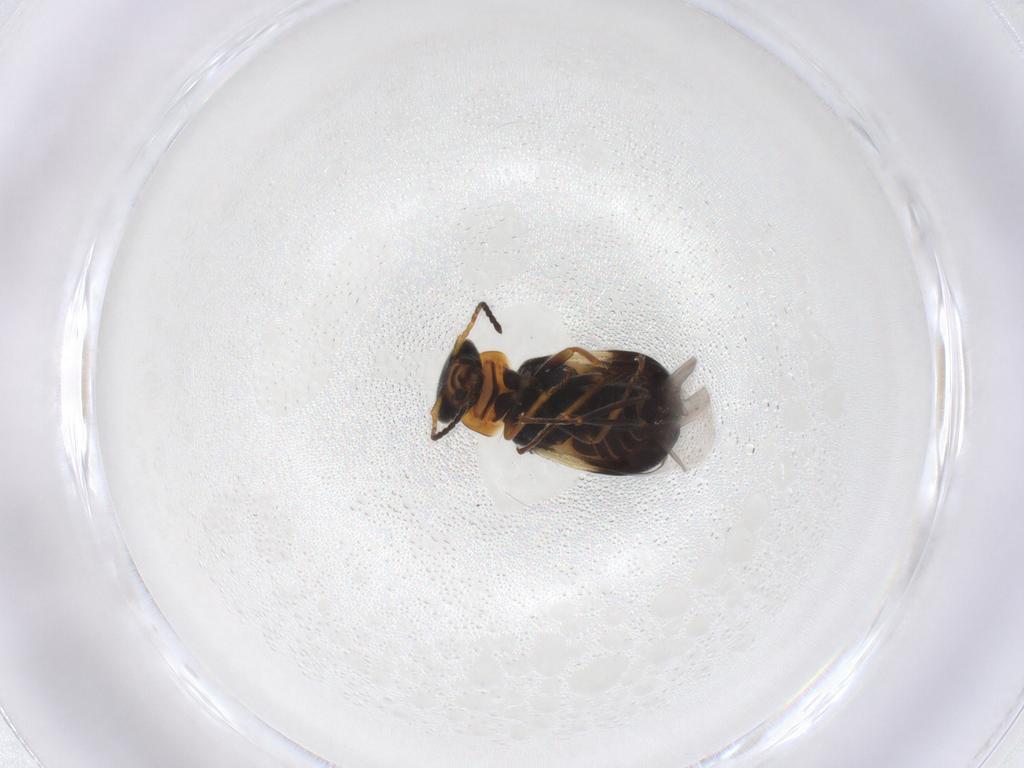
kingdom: Animalia
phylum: Arthropoda
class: Insecta
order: Coleoptera
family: Melyridae
